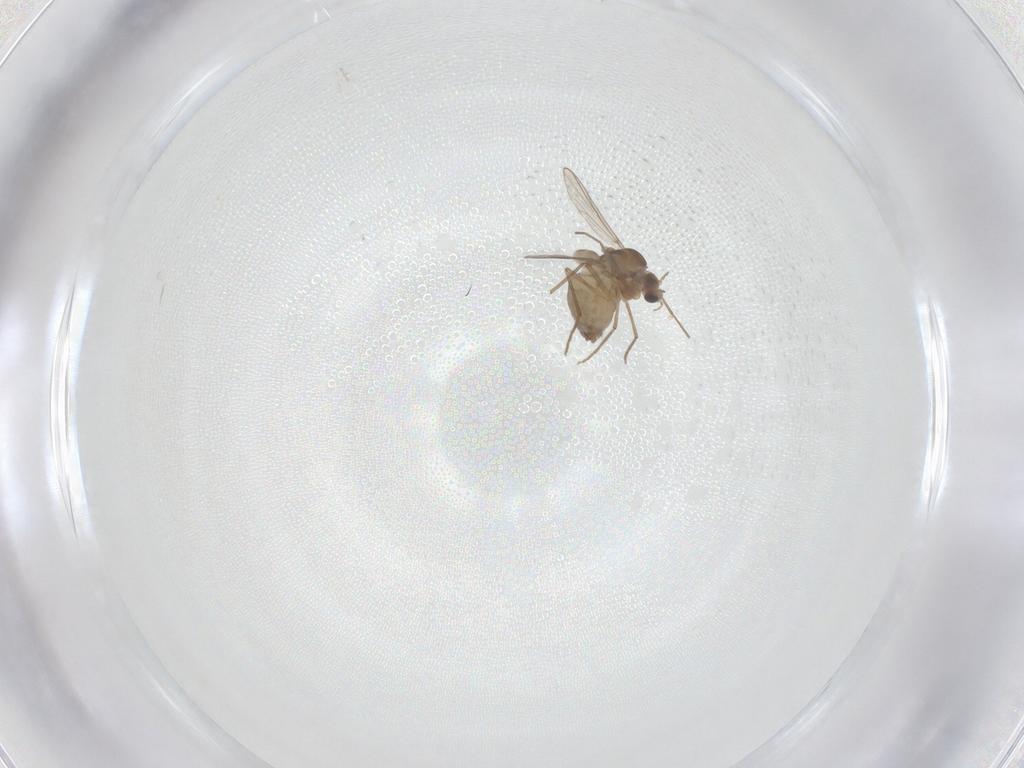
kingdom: Animalia
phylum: Arthropoda
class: Insecta
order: Diptera
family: Chironomidae
